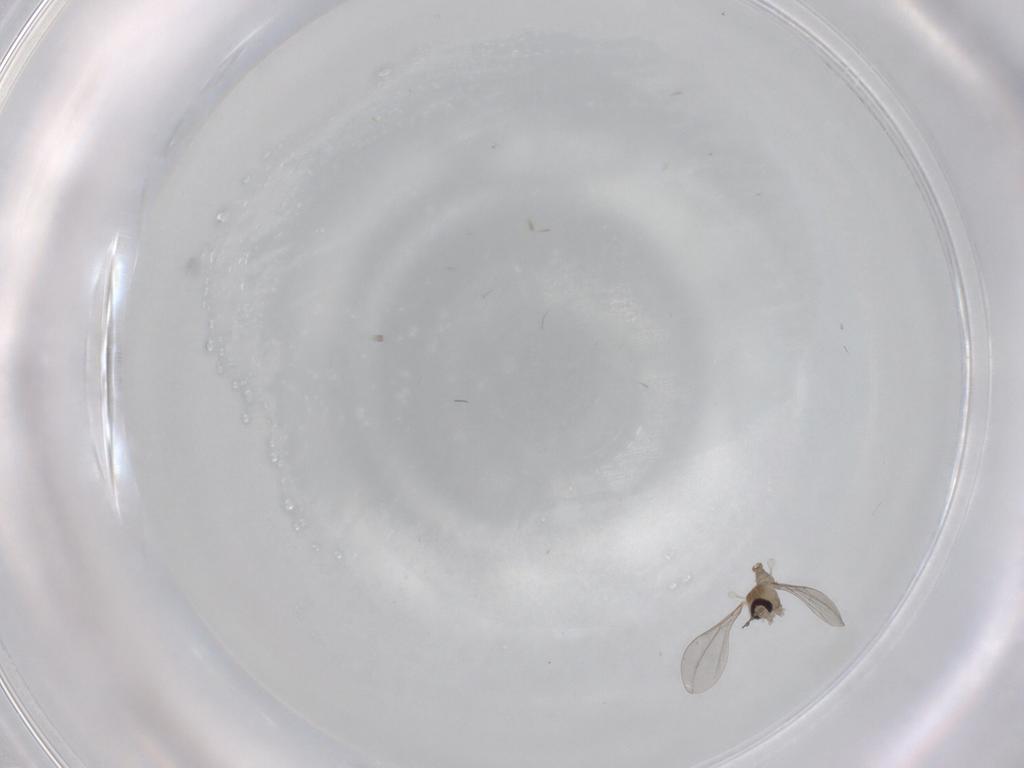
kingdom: Animalia
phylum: Arthropoda
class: Insecta
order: Diptera
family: Cecidomyiidae
